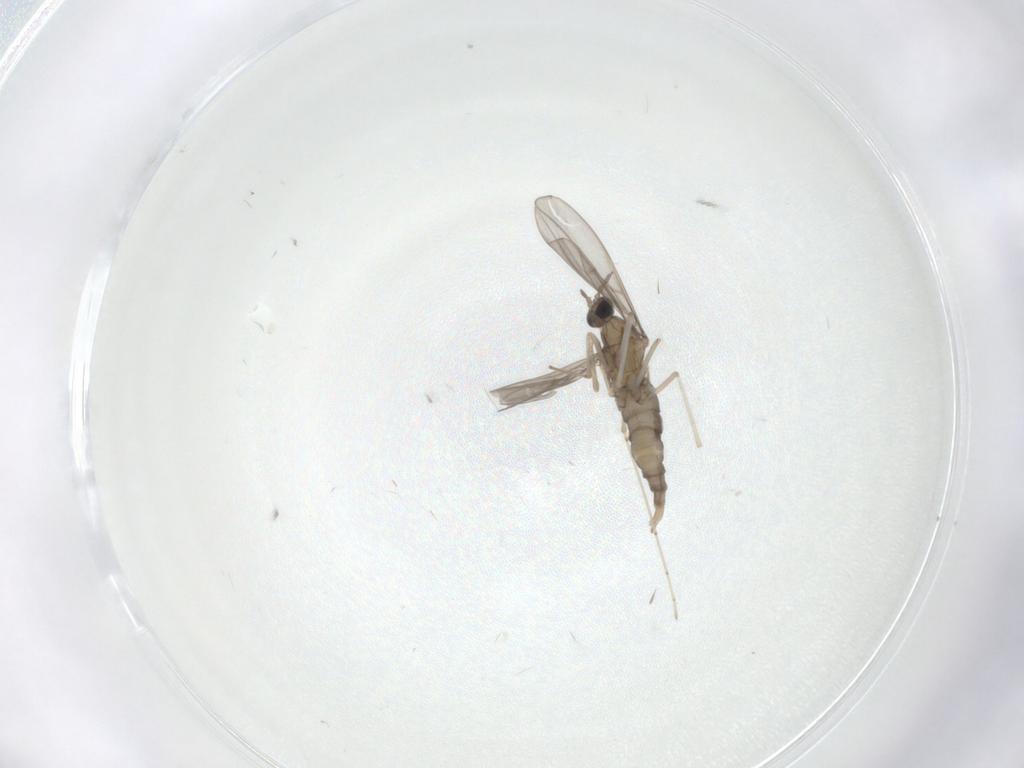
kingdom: Animalia
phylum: Arthropoda
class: Insecta
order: Diptera
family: Cecidomyiidae
